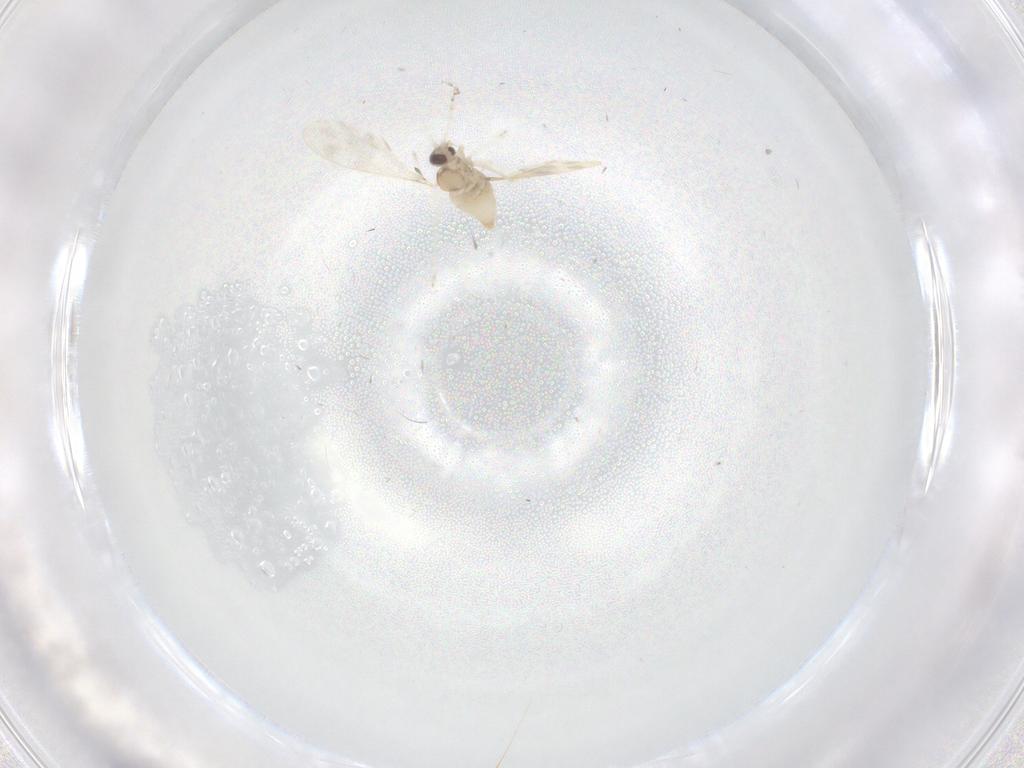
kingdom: Animalia
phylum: Arthropoda
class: Insecta
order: Diptera
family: Cecidomyiidae
